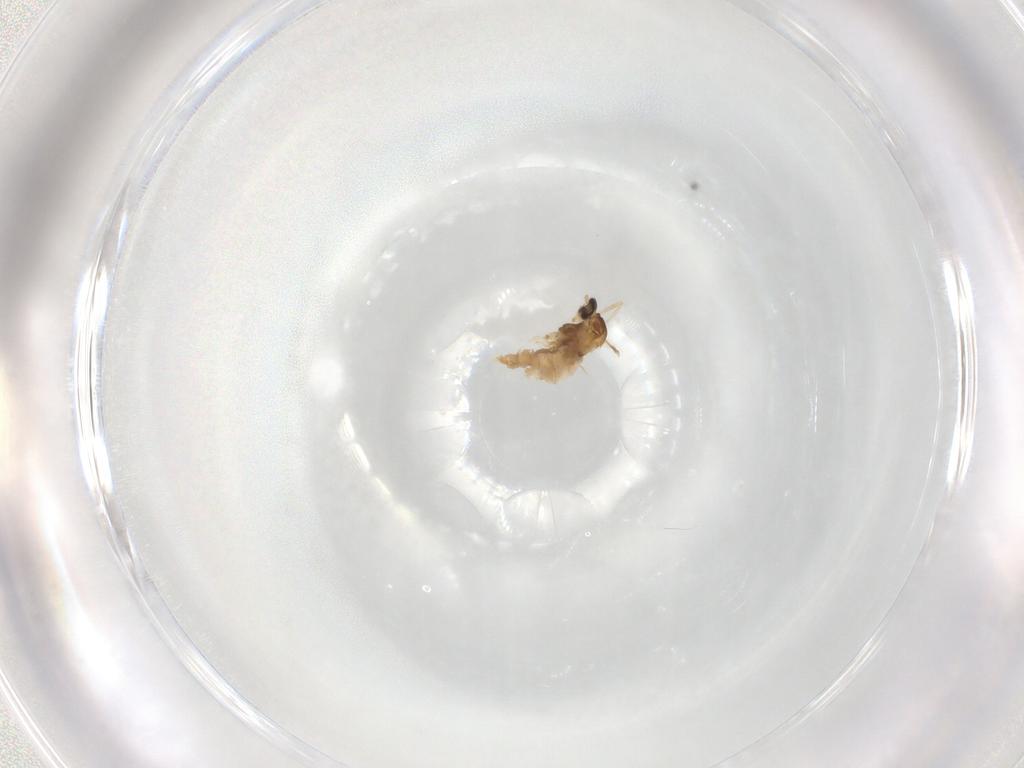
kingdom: Animalia
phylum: Arthropoda
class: Insecta
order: Diptera
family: Cecidomyiidae
